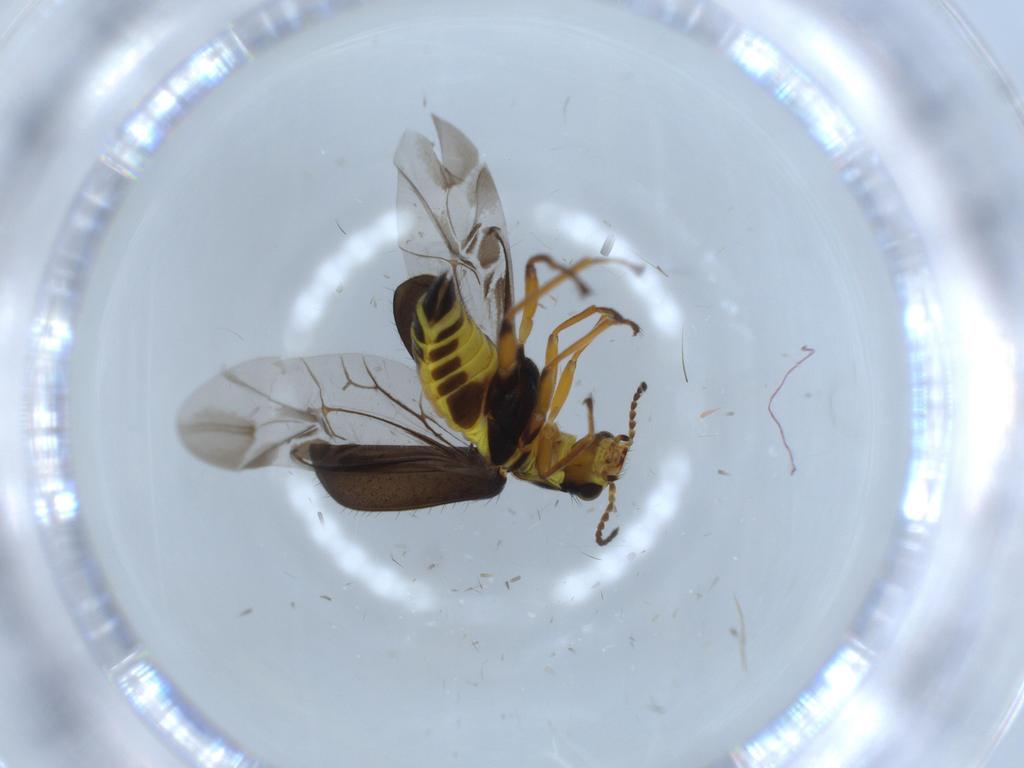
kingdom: Animalia
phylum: Arthropoda
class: Insecta
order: Coleoptera
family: Melyridae
